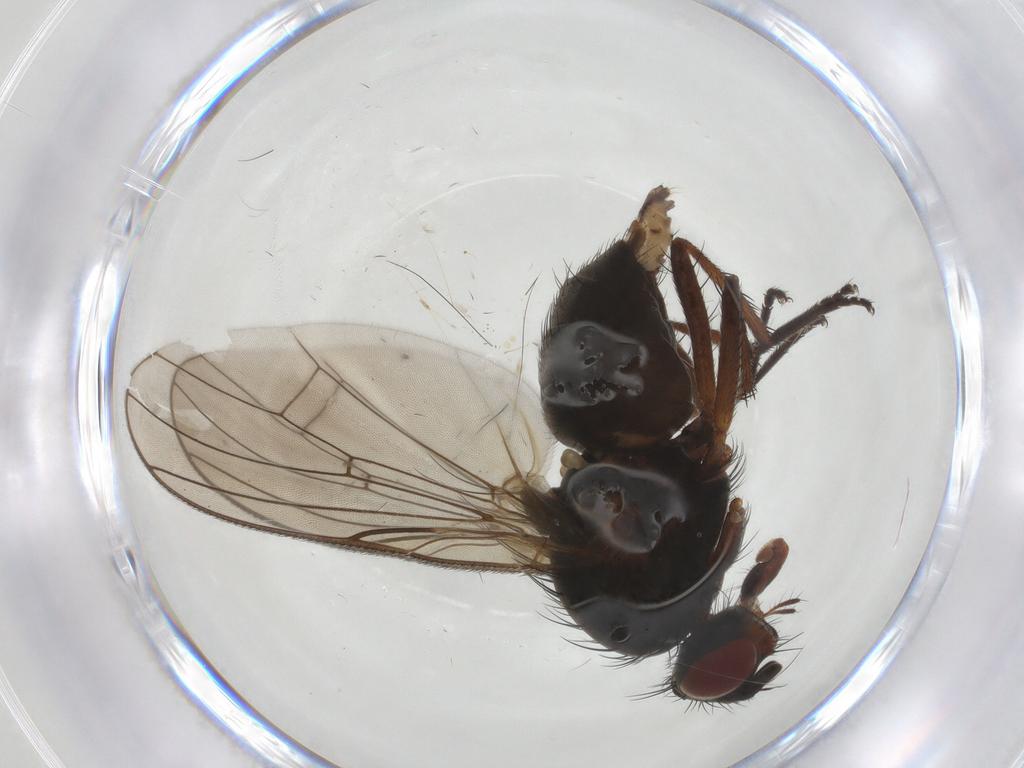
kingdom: Animalia
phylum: Arthropoda
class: Insecta
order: Diptera
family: Anthomyiidae
